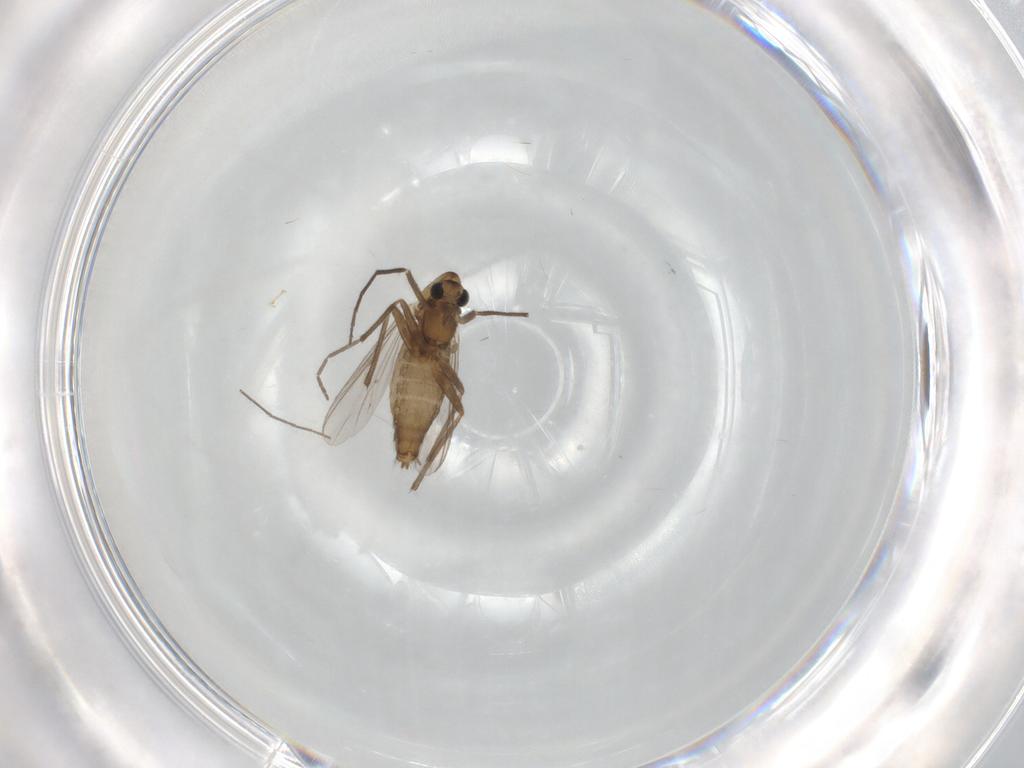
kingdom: Animalia
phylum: Arthropoda
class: Insecta
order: Diptera
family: Chironomidae
